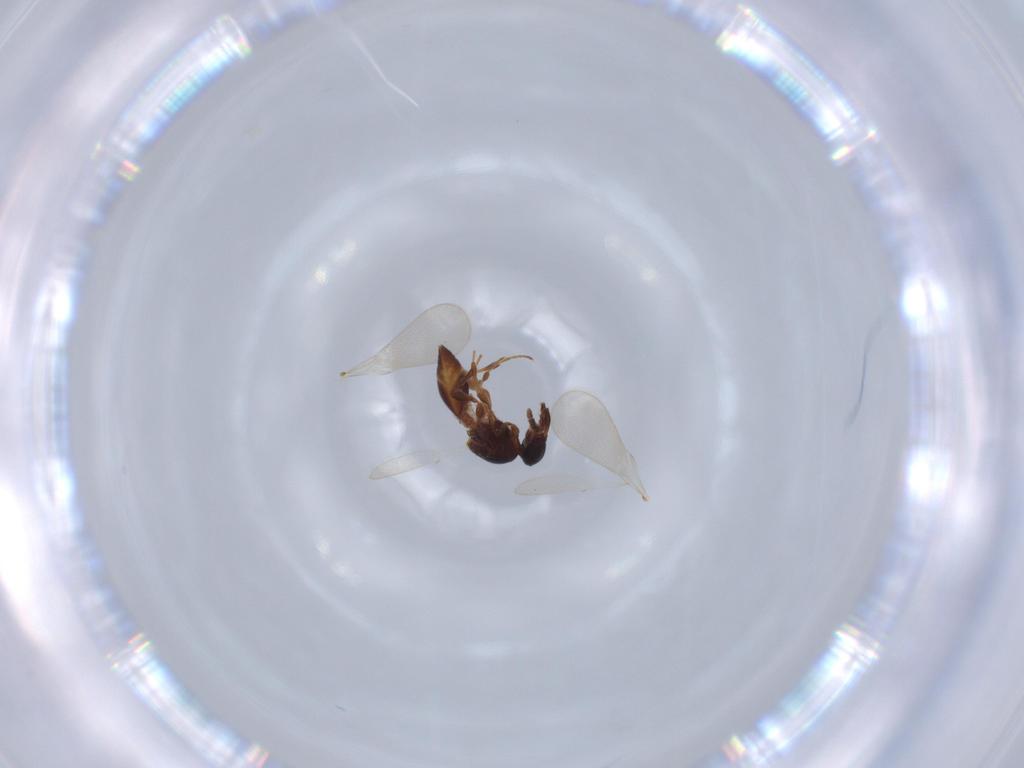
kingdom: Animalia
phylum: Arthropoda
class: Insecta
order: Hymenoptera
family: Platygastridae
